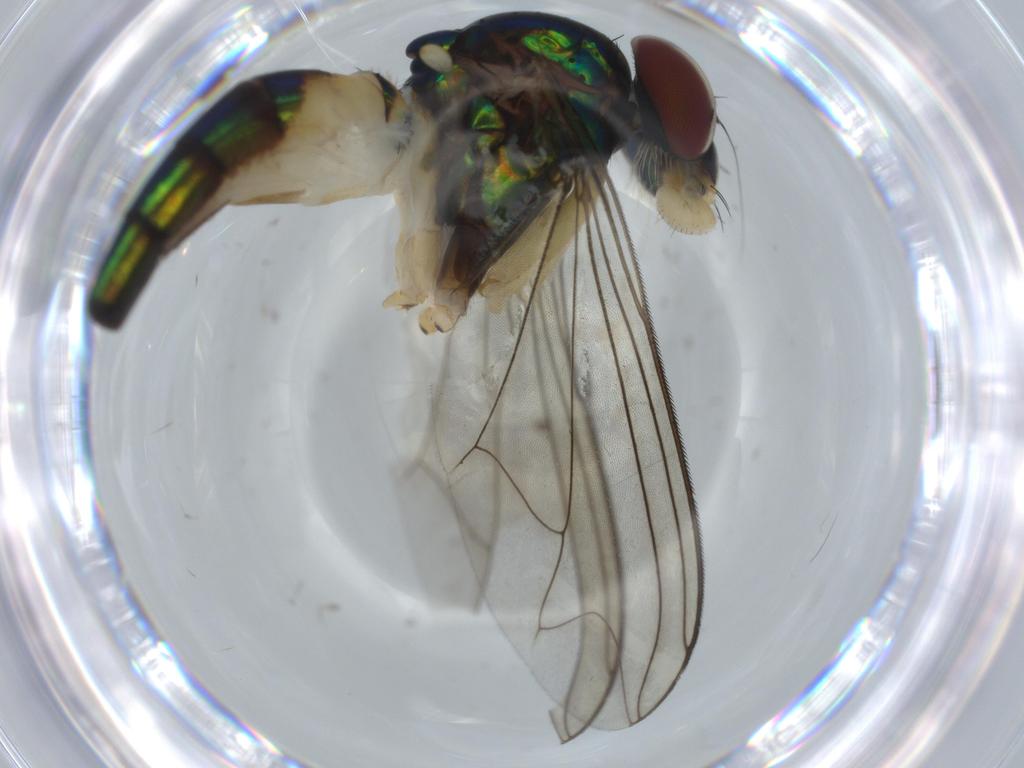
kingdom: Animalia
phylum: Arthropoda
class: Insecta
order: Diptera
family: Dolichopodidae
